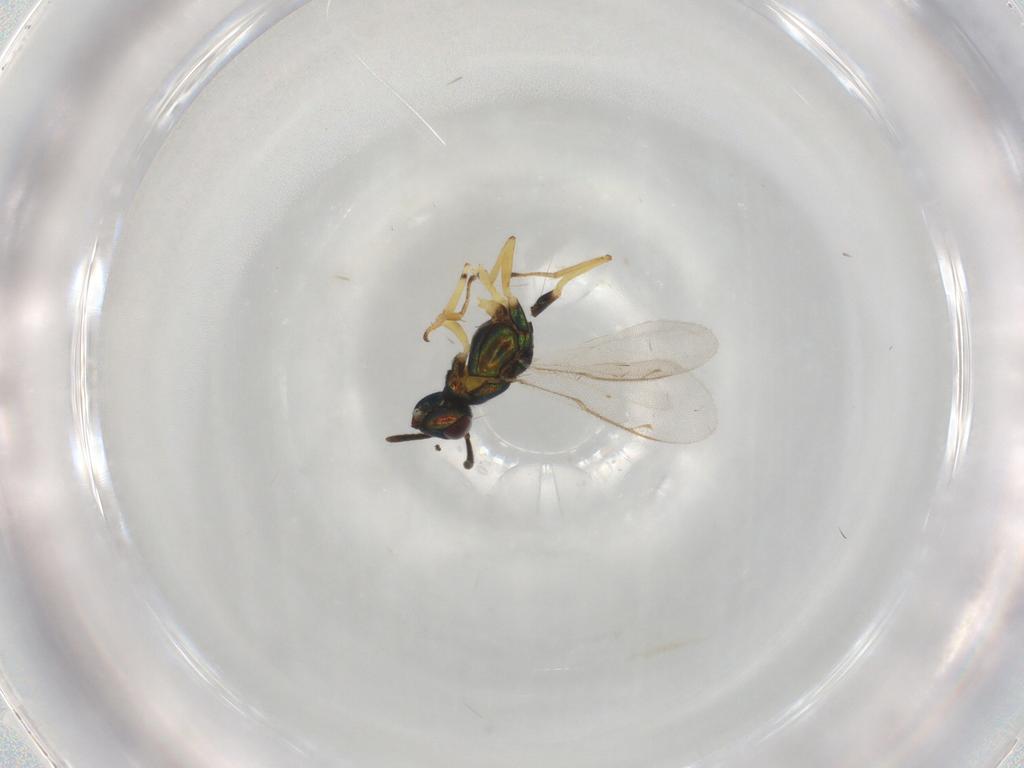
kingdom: Animalia
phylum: Arthropoda
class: Insecta
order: Hymenoptera
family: Eupelmidae
